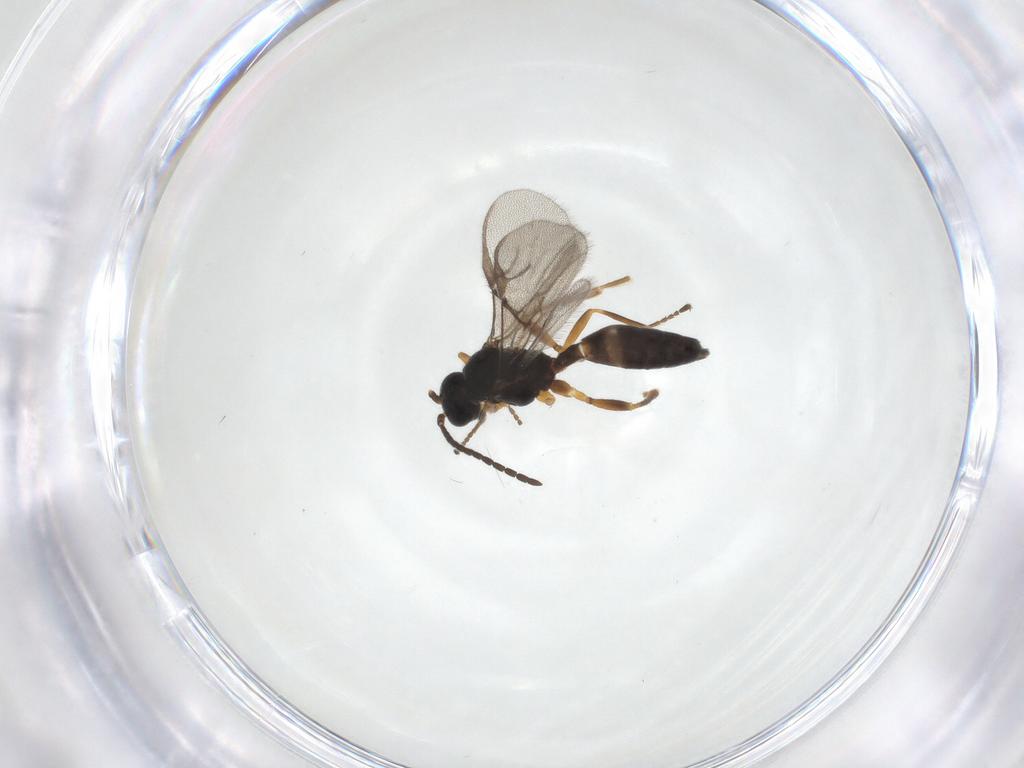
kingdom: Animalia
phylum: Arthropoda
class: Insecta
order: Hymenoptera
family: Braconidae
